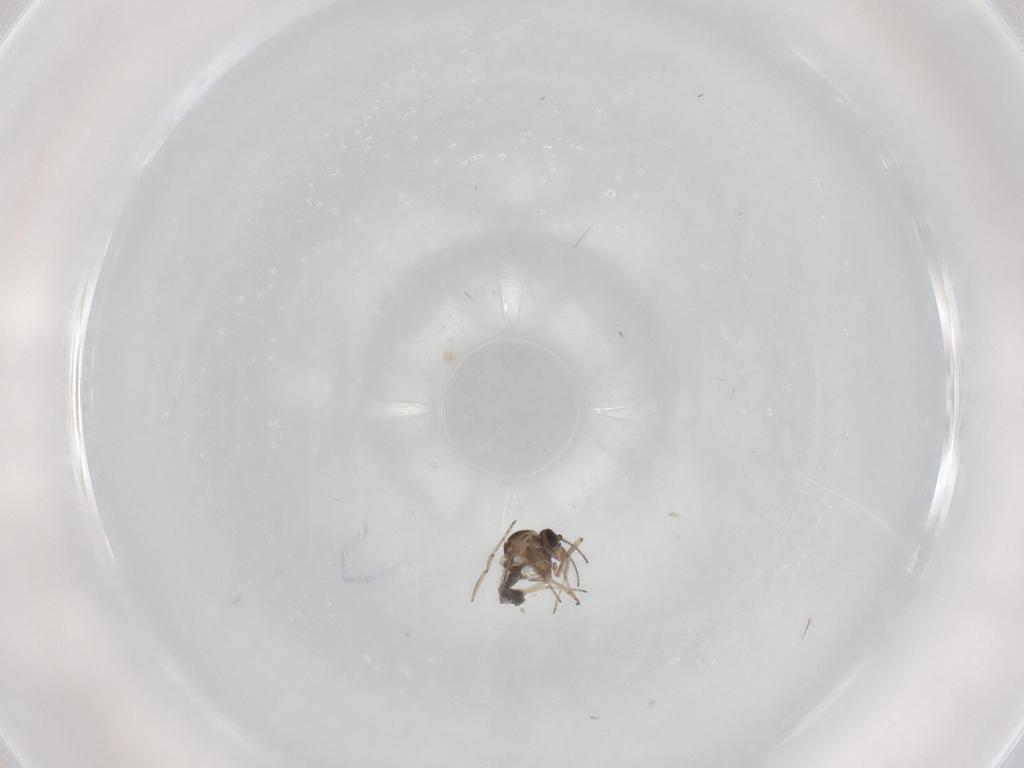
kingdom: Animalia
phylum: Arthropoda
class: Insecta
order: Diptera
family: Ceratopogonidae
